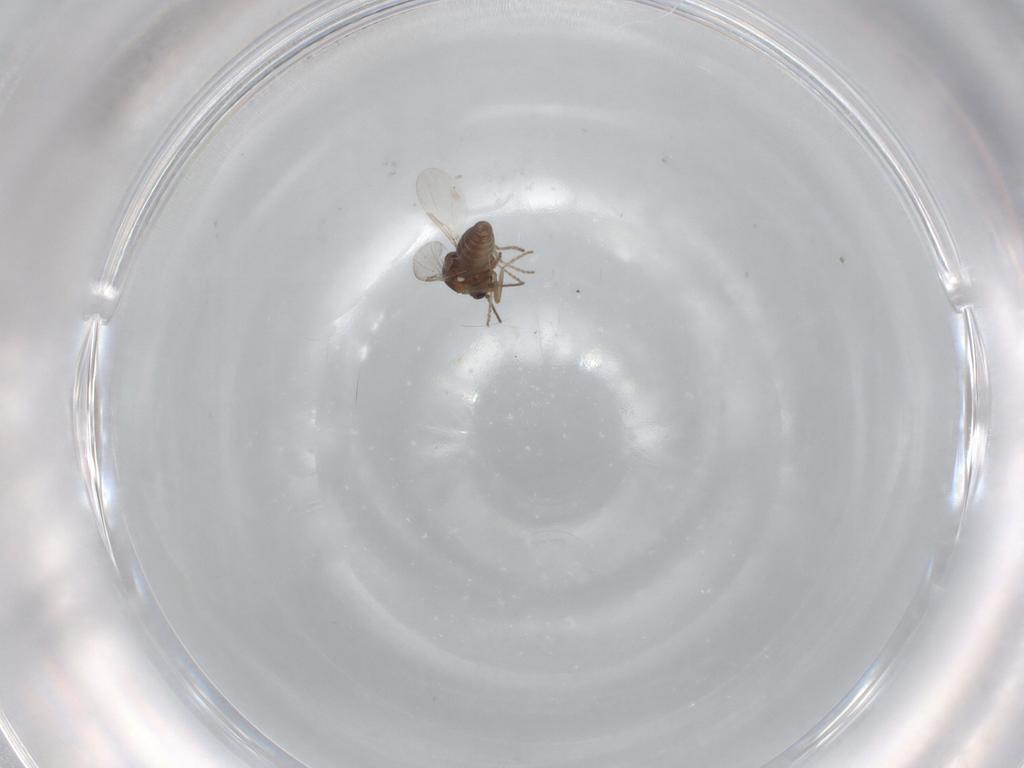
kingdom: Animalia
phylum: Arthropoda
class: Insecta
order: Diptera
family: Ceratopogonidae
